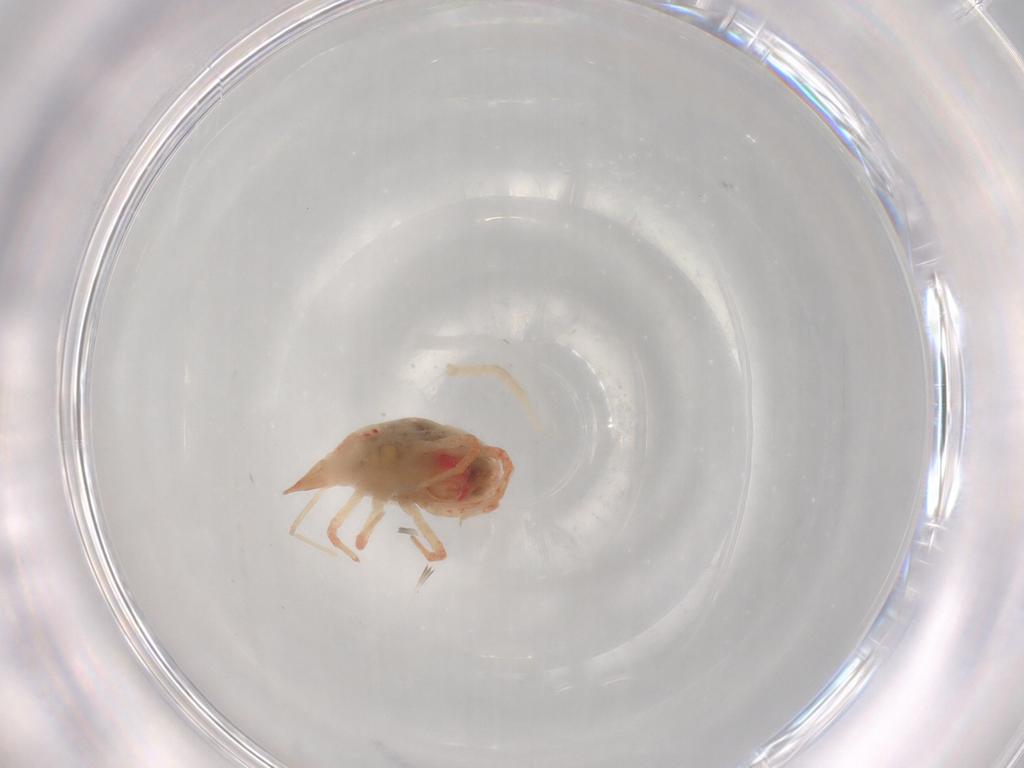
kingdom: Animalia
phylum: Arthropoda
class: Arachnida
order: Trombidiformes
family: Bdellidae
